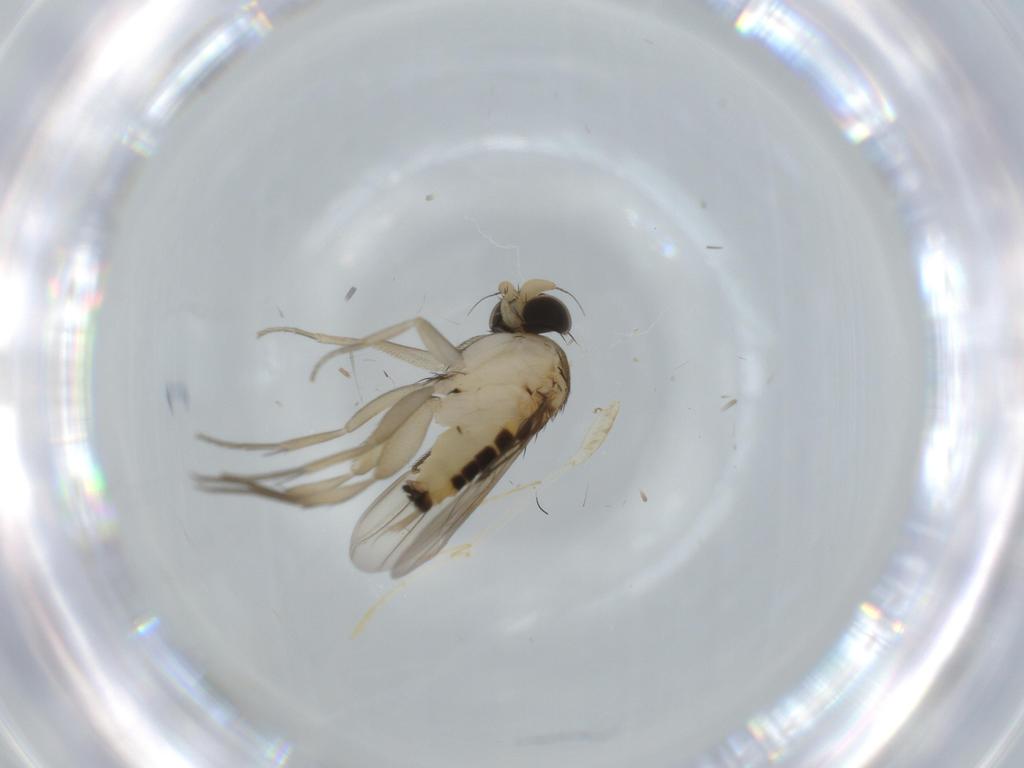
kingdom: Animalia
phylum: Arthropoda
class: Insecta
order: Diptera
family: Phoridae
